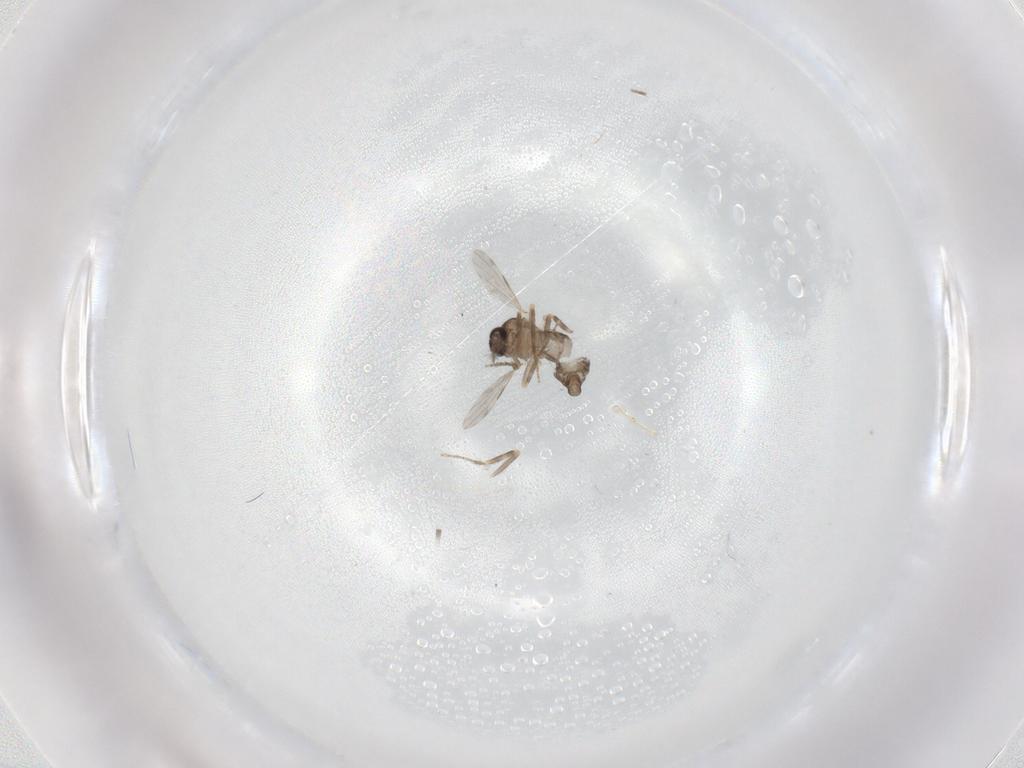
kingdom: Animalia
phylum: Arthropoda
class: Insecta
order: Diptera
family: Ceratopogonidae
